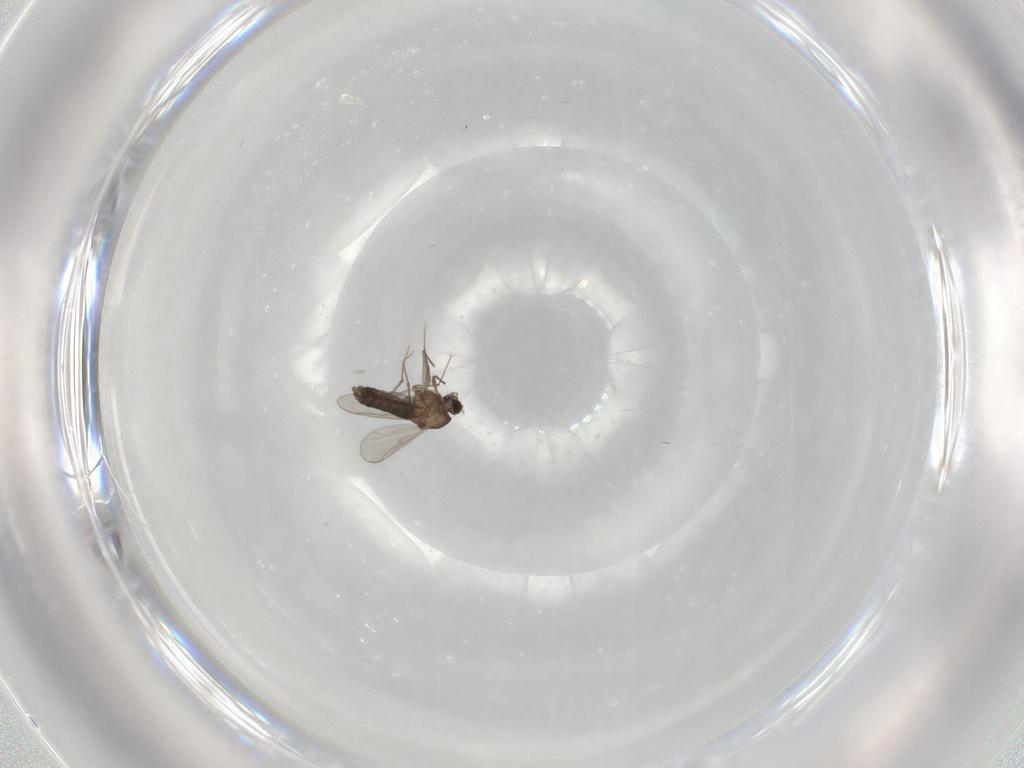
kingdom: Animalia
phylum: Arthropoda
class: Insecta
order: Diptera
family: Chironomidae
